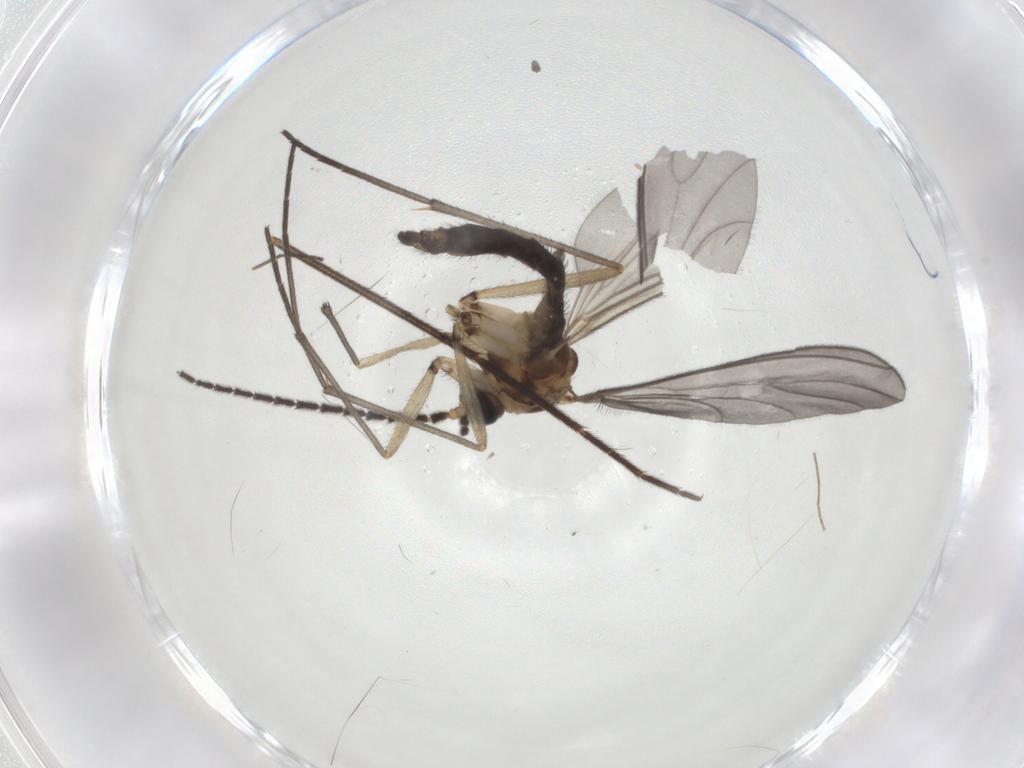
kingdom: Animalia
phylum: Arthropoda
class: Insecta
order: Diptera
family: Sciaridae
